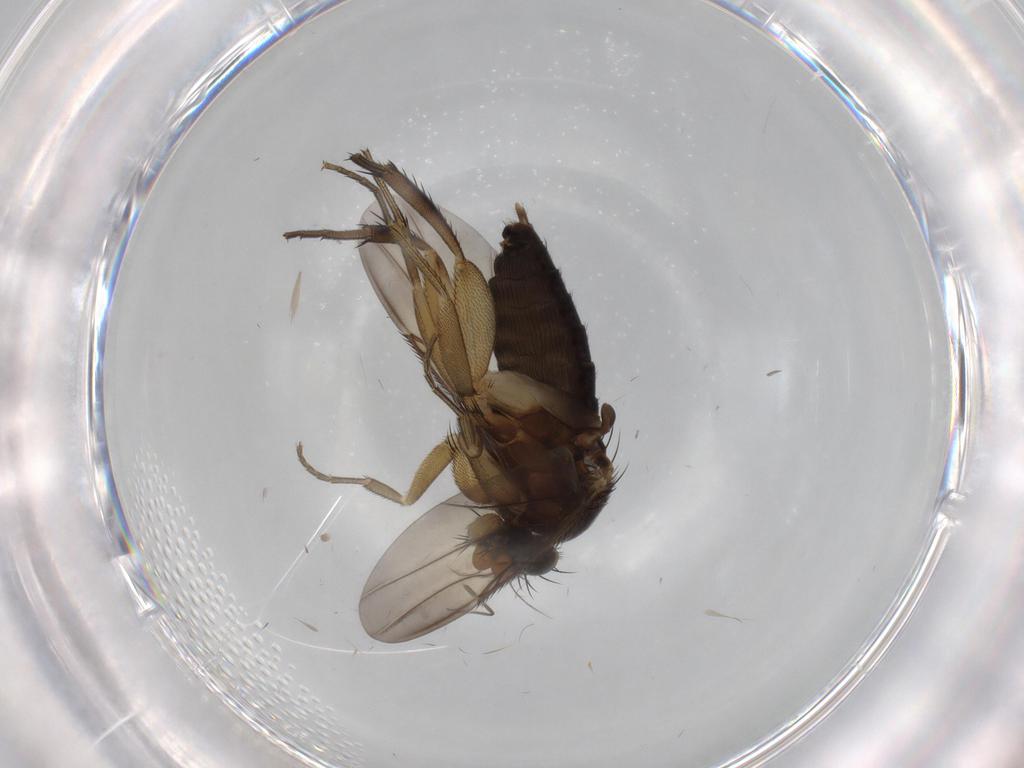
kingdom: Animalia
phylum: Arthropoda
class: Insecta
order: Diptera
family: Phoridae
